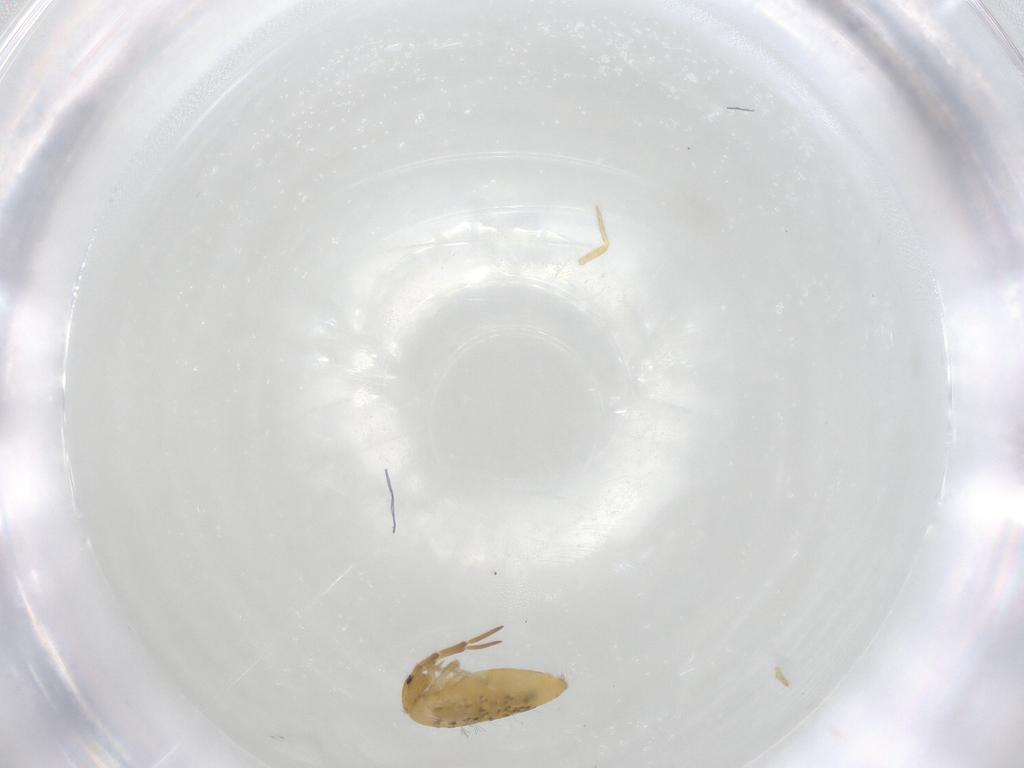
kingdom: Animalia
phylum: Arthropoda
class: Collembola
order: Entomobryomorpha
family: Entomobryidae
